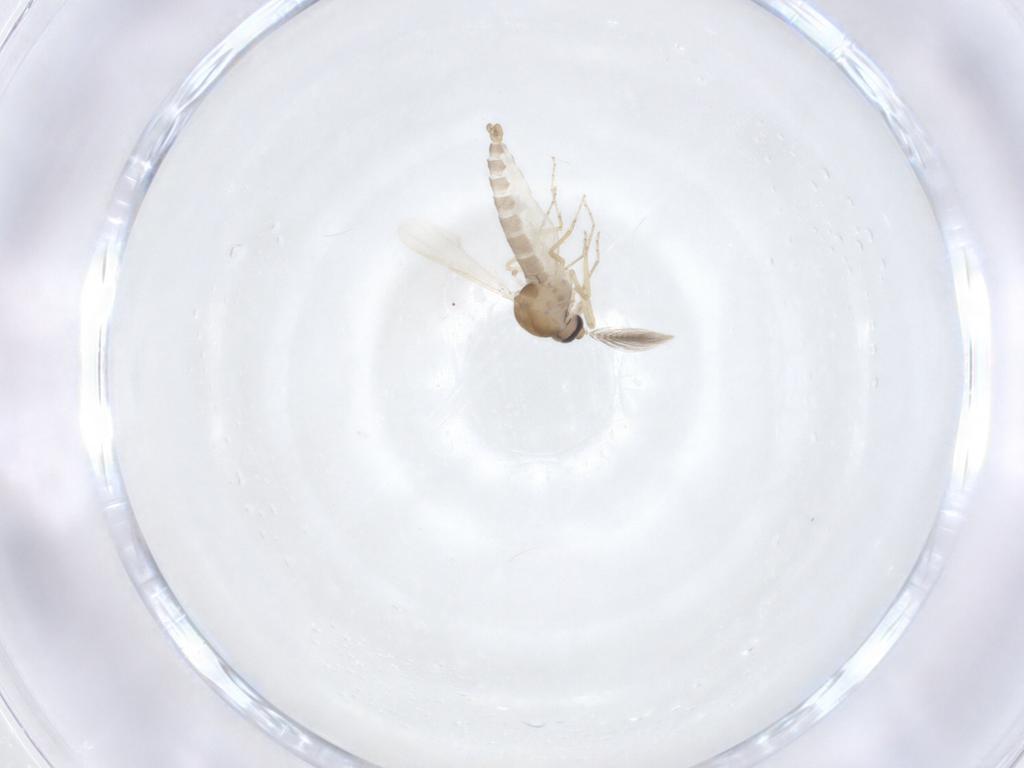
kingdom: Animalia
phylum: Arthropoda
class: Insecta
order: Diptera
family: Ceratopogonidae
